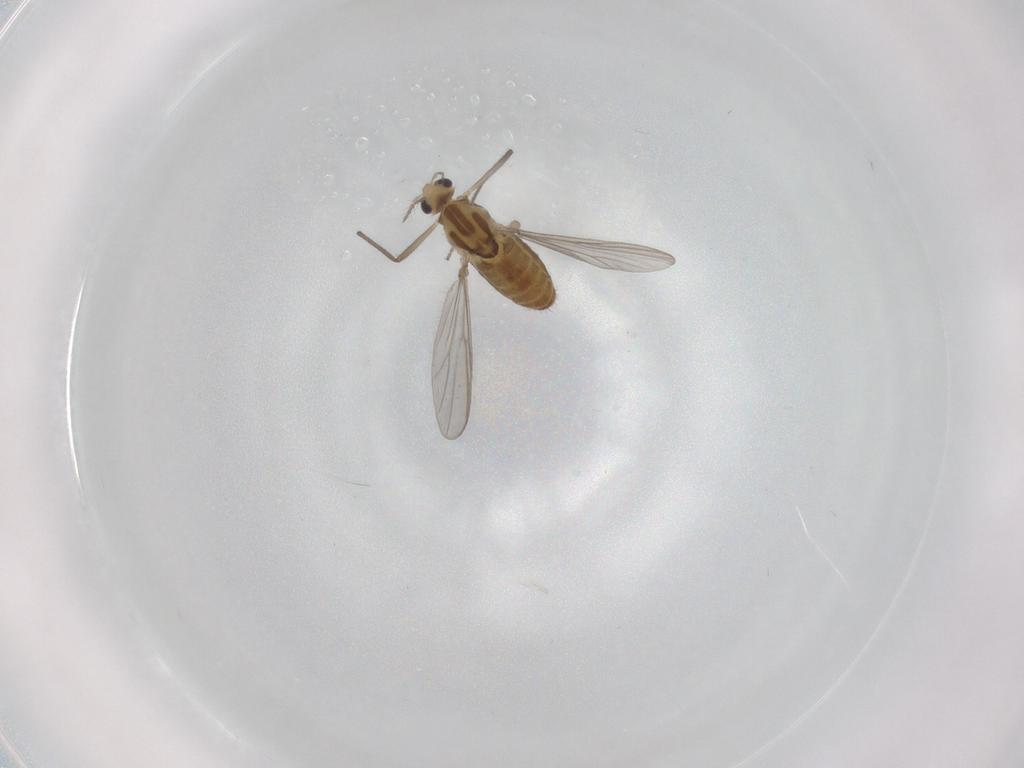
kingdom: Animalia
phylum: Arthropoda
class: Insecta
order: Diptera
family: Chironomidae
